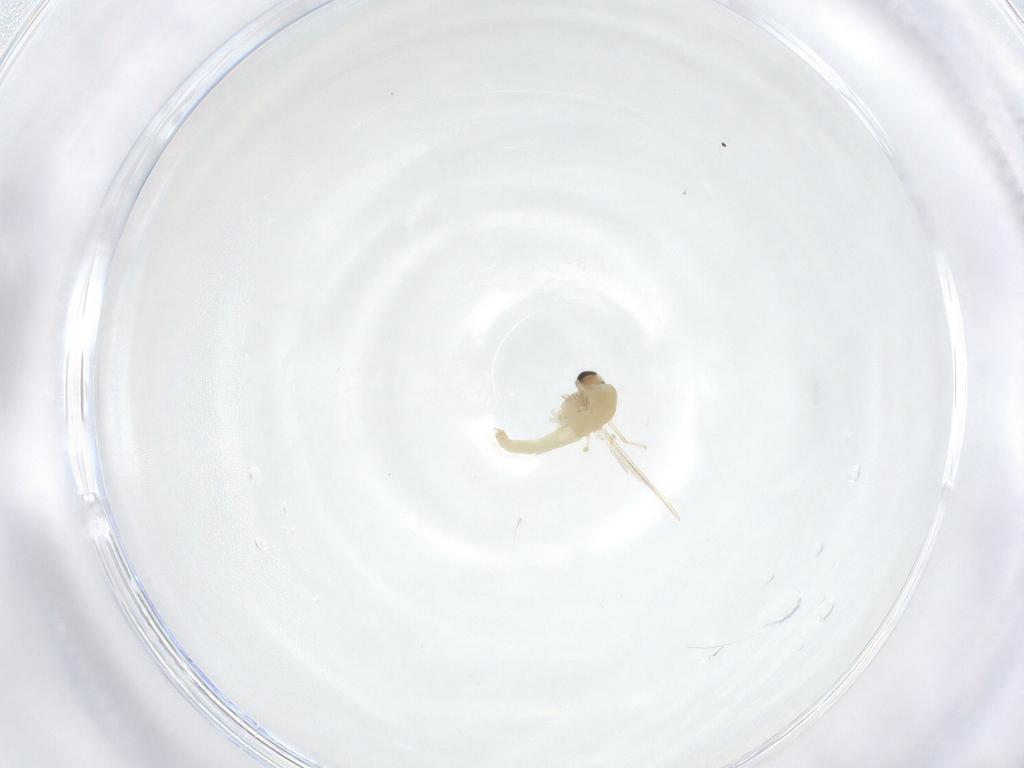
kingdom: Animalia
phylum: Arthropoda
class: Insecta
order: Diptera
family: Chironomidae
